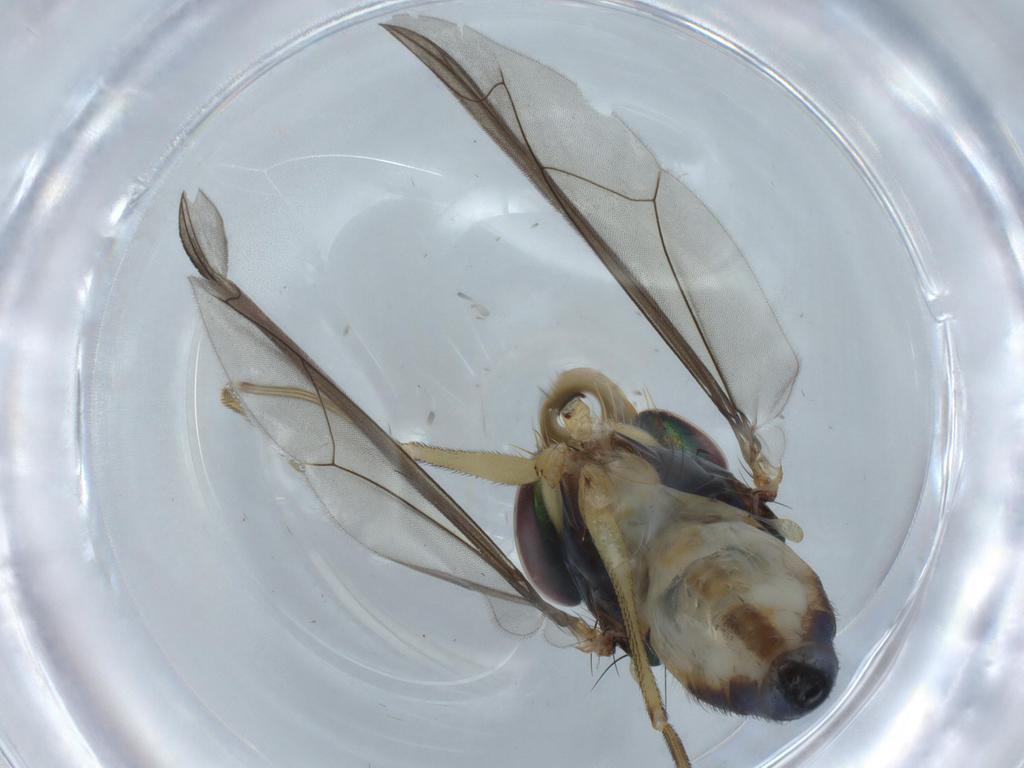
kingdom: Animalia
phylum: Arthropoda
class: Insecta
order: Diptera
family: Dolichopodidae
